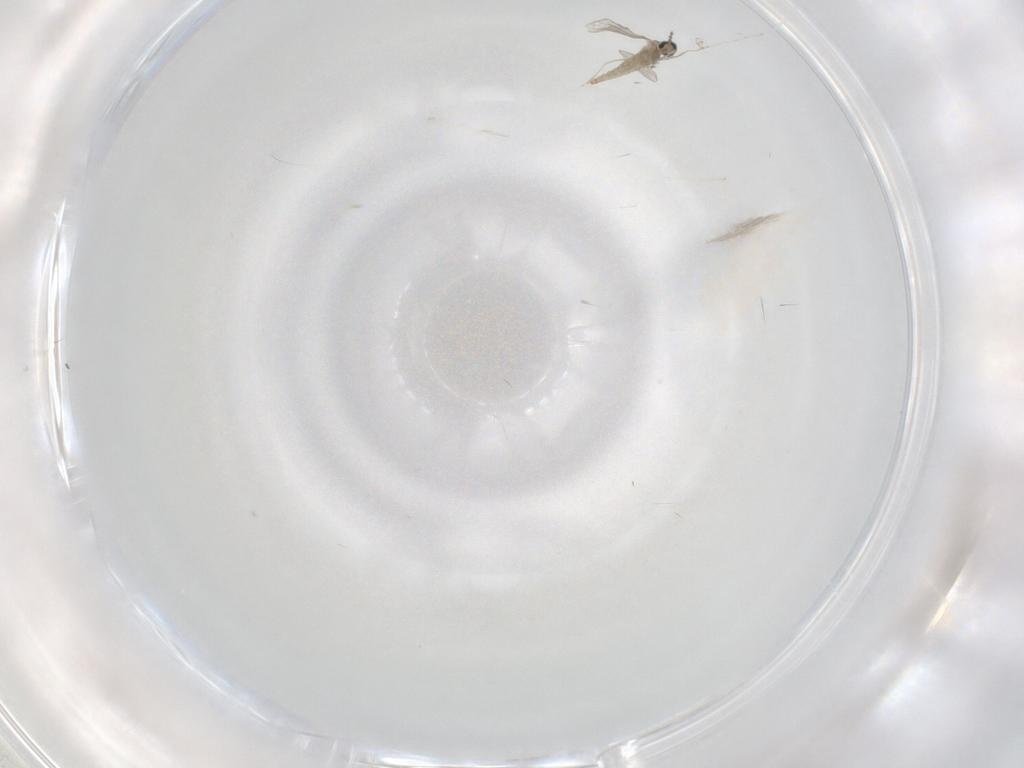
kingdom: Animalia
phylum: Arthropoda
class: Insecta
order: Diptera
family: Cecidomyiidae
